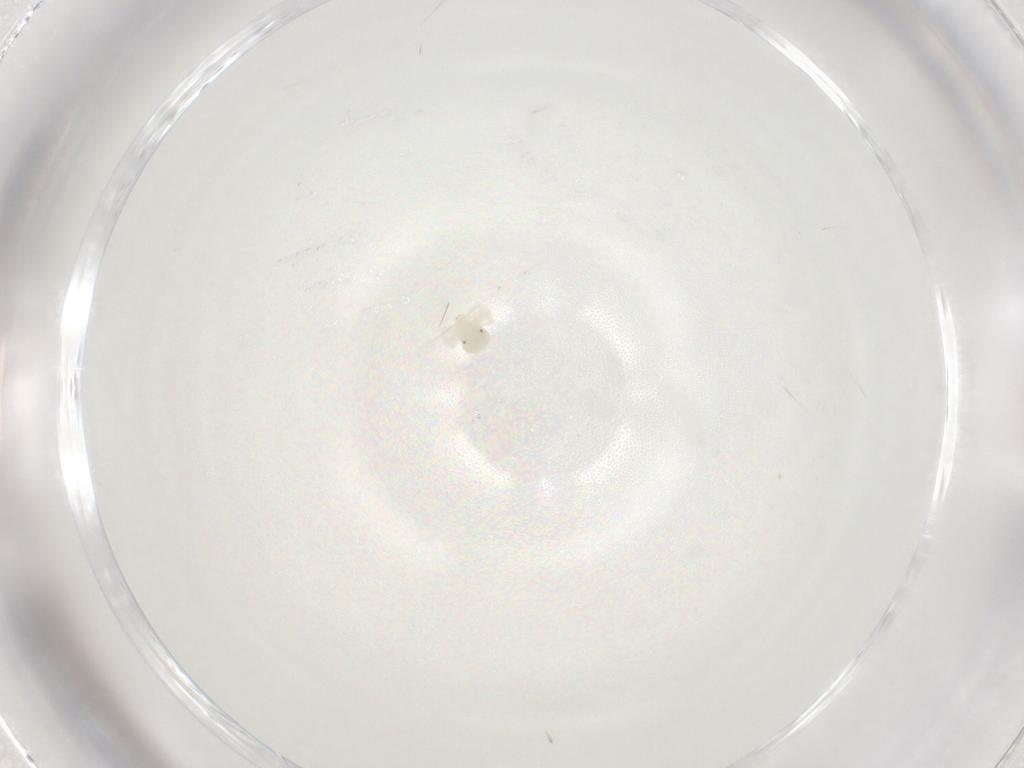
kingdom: Animalia
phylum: Arthropoda
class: Arachnida
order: Trombidiformes
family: Anystidae
